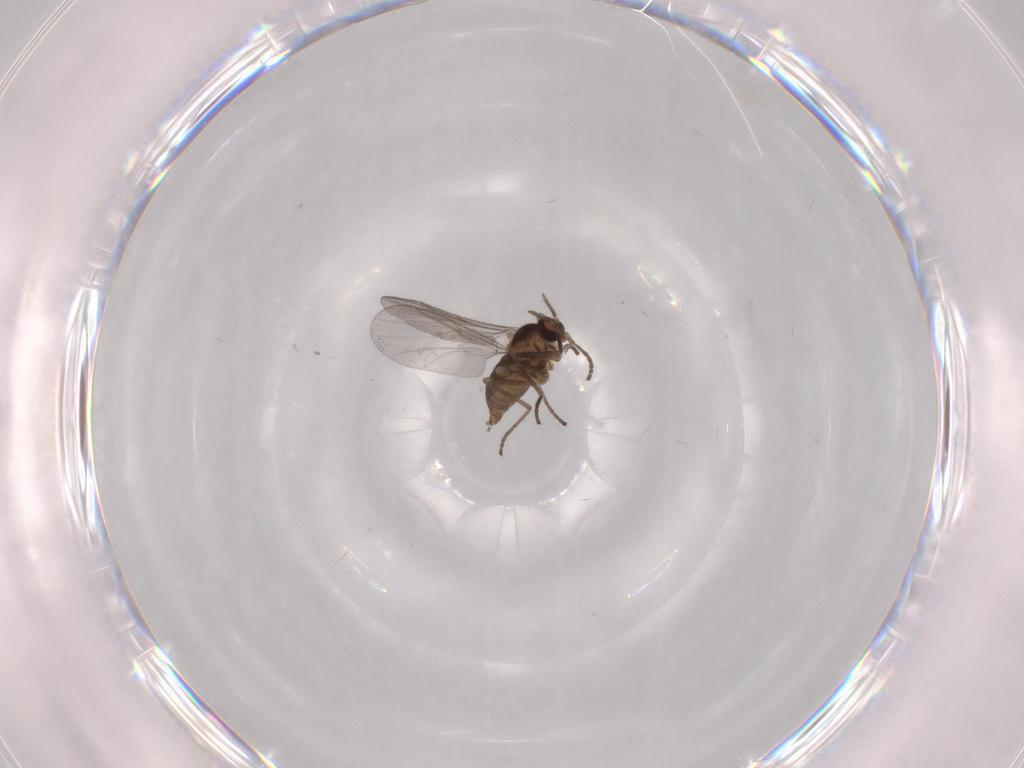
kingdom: Animalia
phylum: Arthropoda
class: Insecta
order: Diptera
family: Cecidomyiidae
